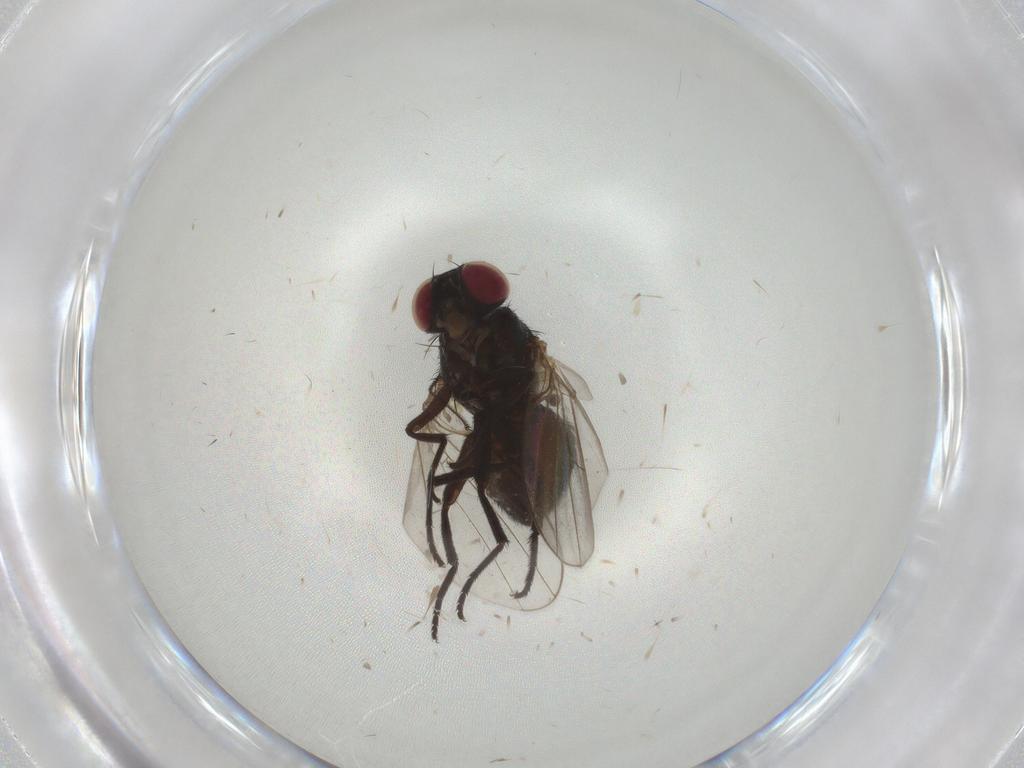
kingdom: Animalia
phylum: Arthropoda
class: Insecta
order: Diptera
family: Agromyzidae
